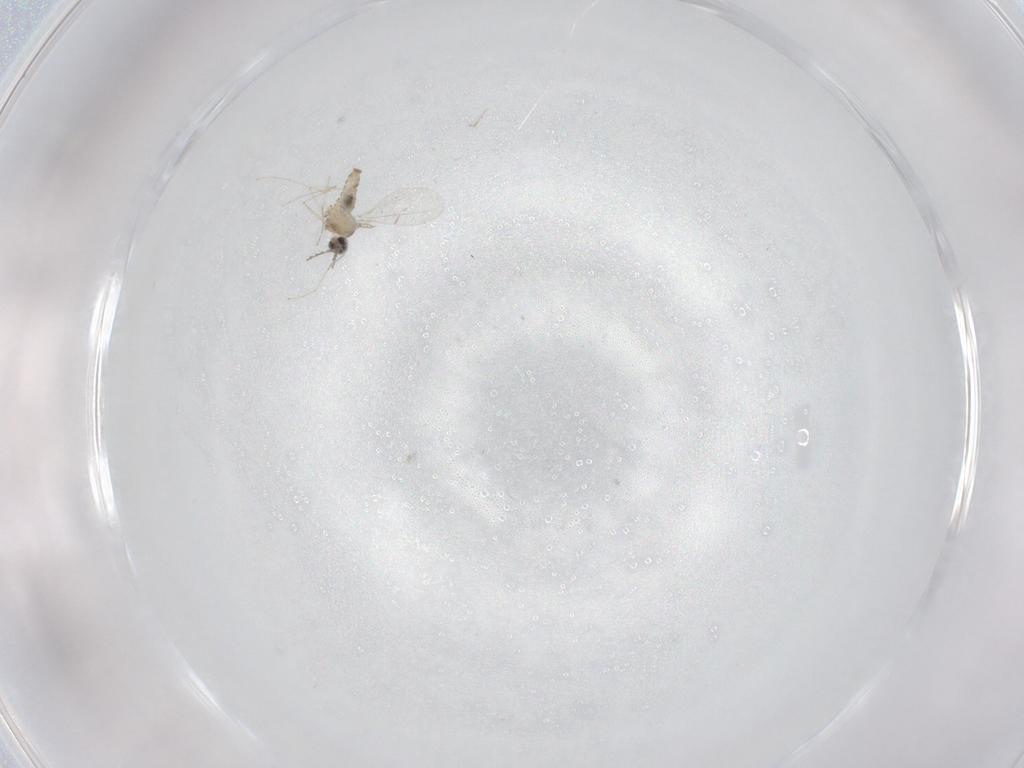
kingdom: Animalia
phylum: Arthropoda
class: Insecta
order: Diptera
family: Cecidomyiidae
